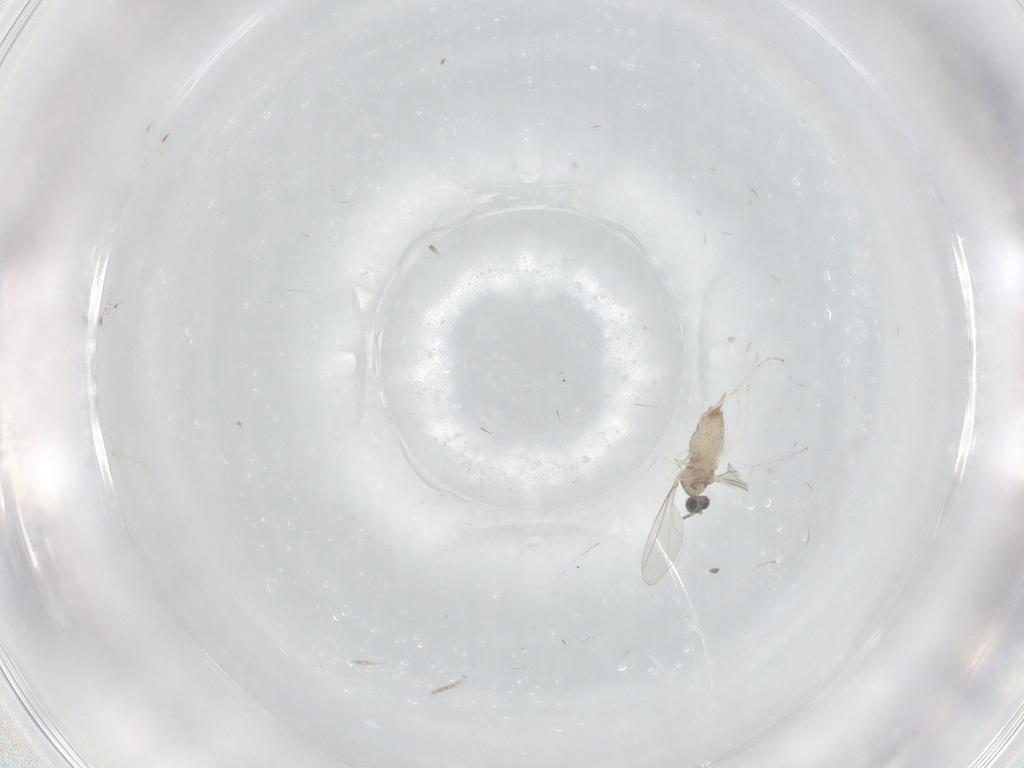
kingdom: Animalia
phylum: Arthropoda
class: Insecta
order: Diptera
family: Cecidomyiidae
